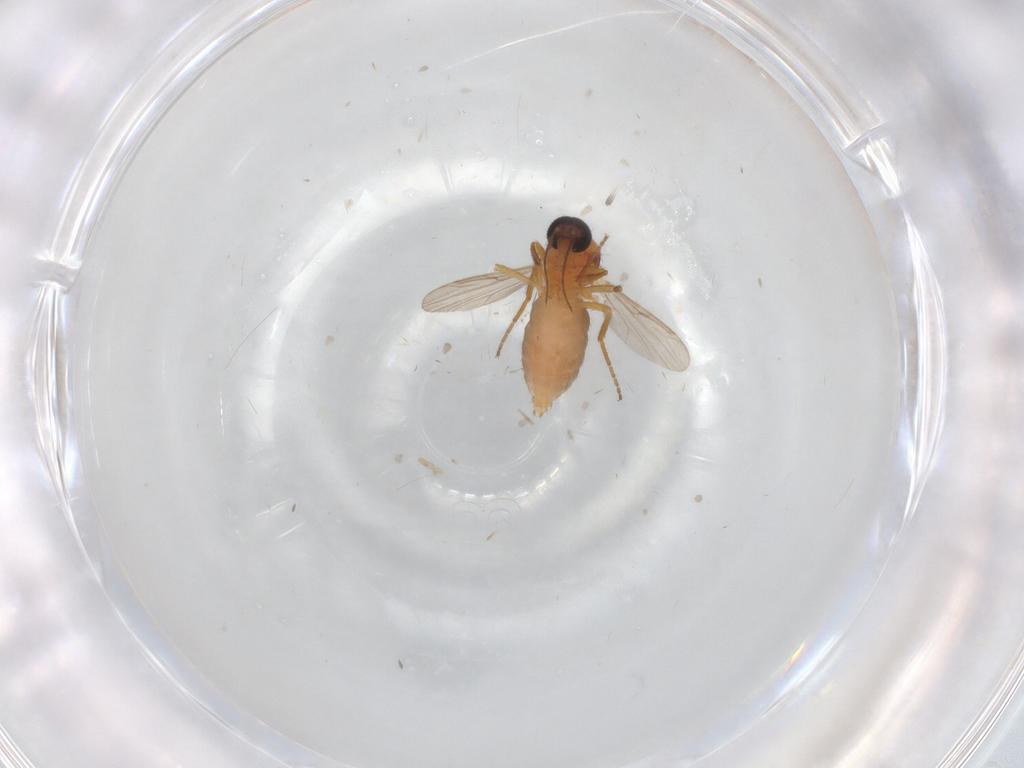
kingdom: Animalia
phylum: Arthropoda
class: Insecta
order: Diptera
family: Ceratopogonidae
